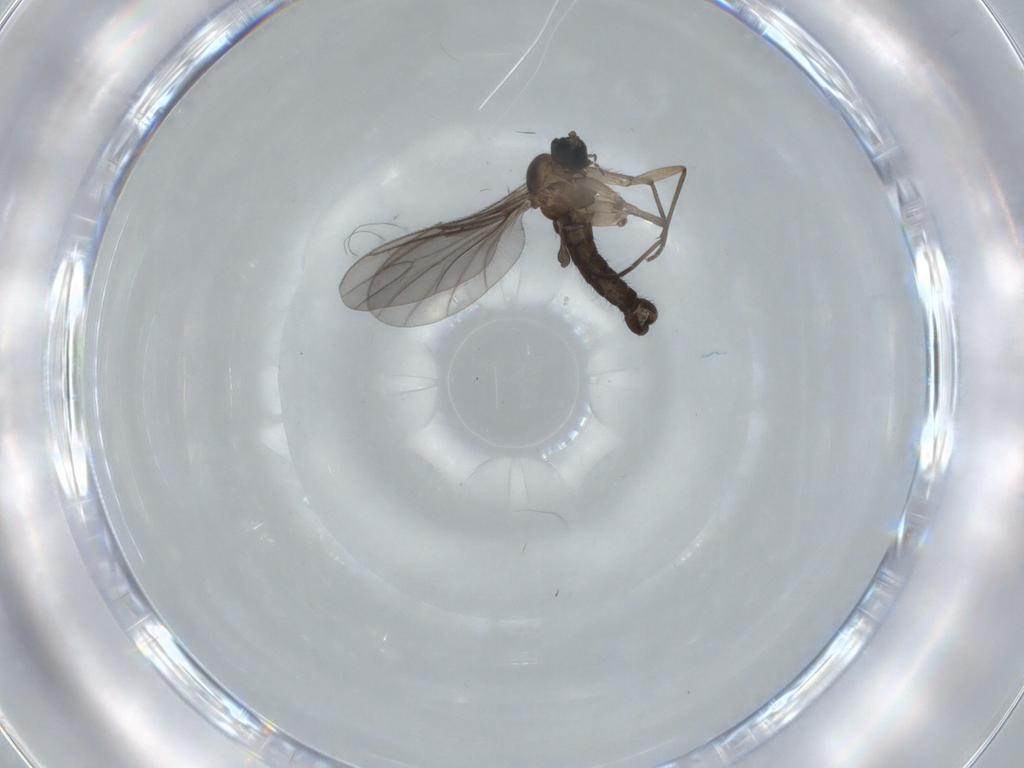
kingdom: Animalia
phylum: Arthropoda
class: Insecta
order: Diptera
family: Sciaridae
